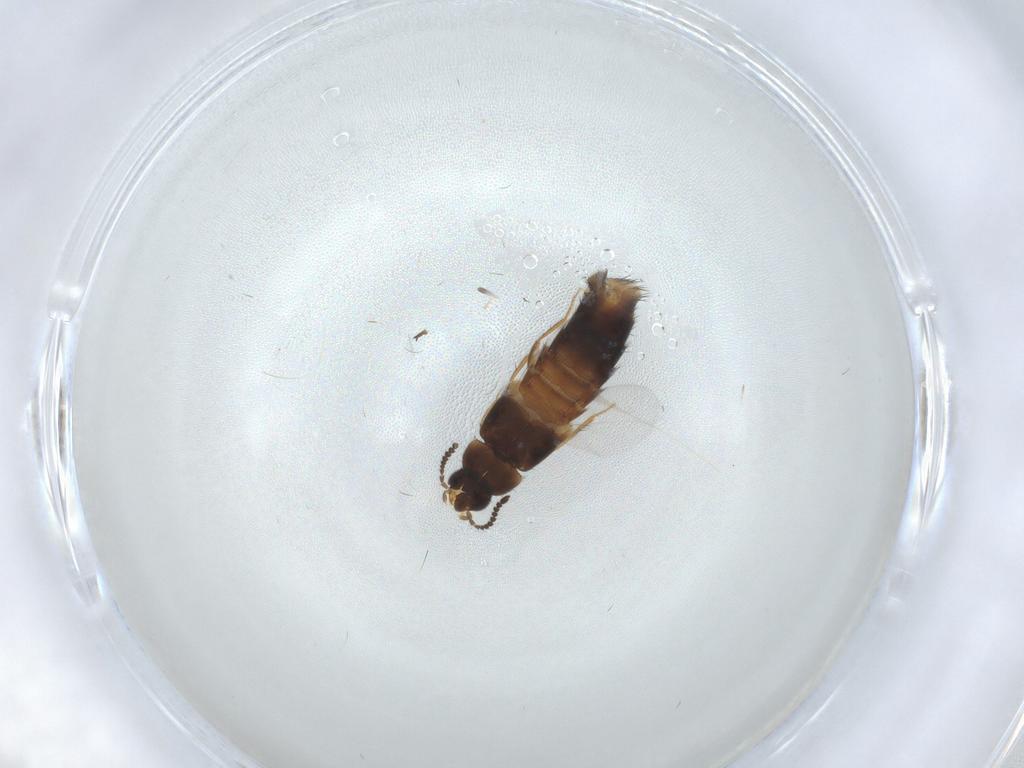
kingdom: Animalia
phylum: Arthropoda
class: Insecta
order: Coleoptera
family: Staphylinidae
